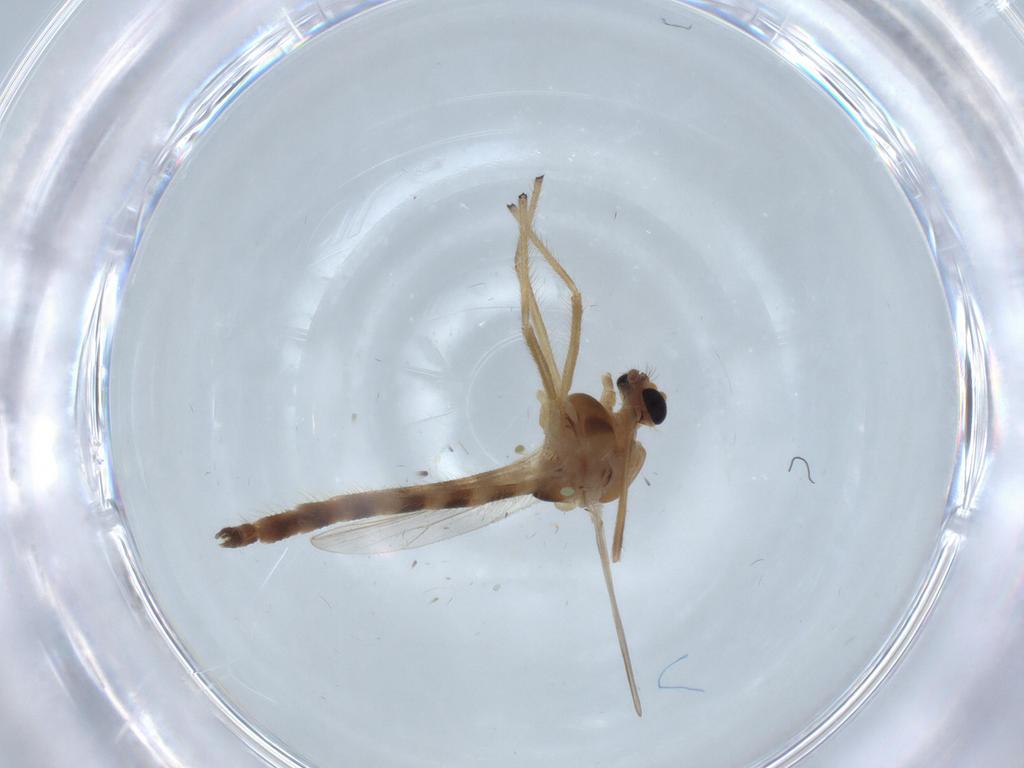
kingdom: Animalia
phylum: Arthropoda
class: Insecta
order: Diptera
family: Chironomidae
